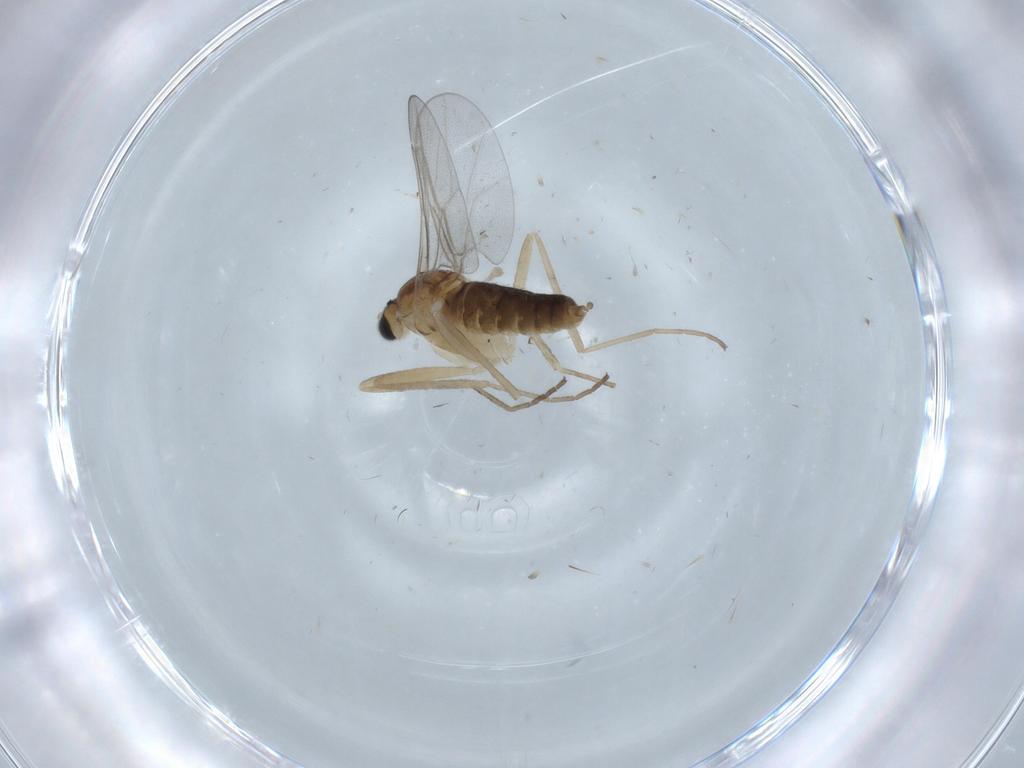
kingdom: Animalia
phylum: Arthropoda
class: Insecta
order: Diptera
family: Cecidomyiidae
